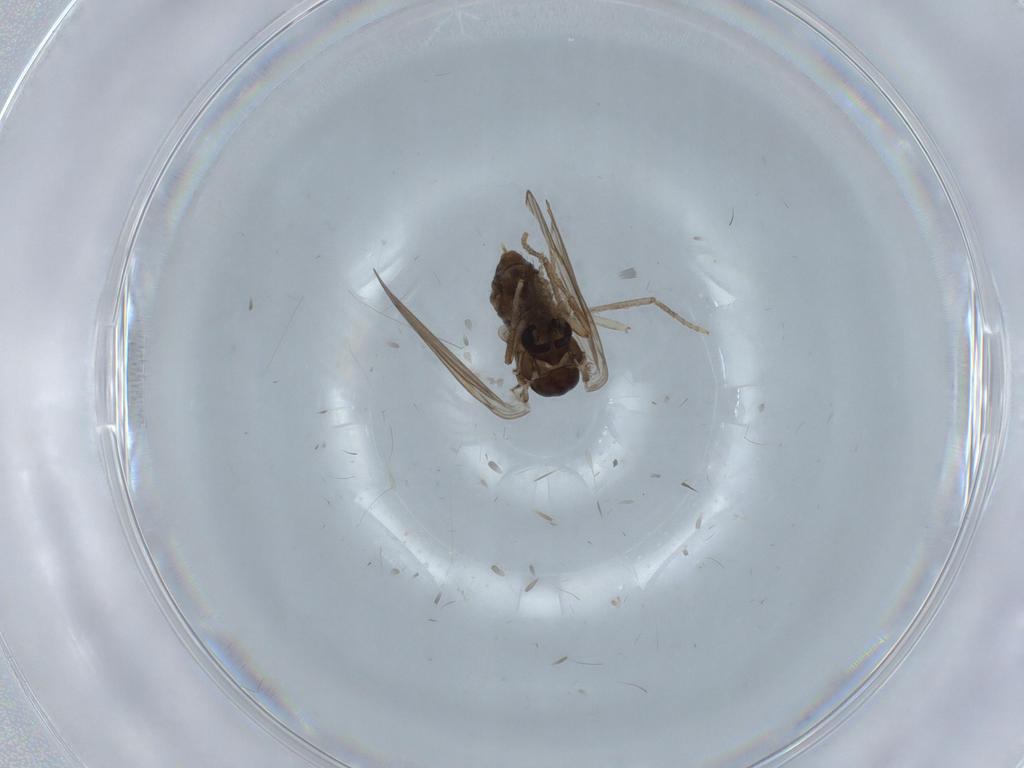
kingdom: Animalia
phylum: Arthropoda
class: Insecta
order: Diptera
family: Psychodidae
